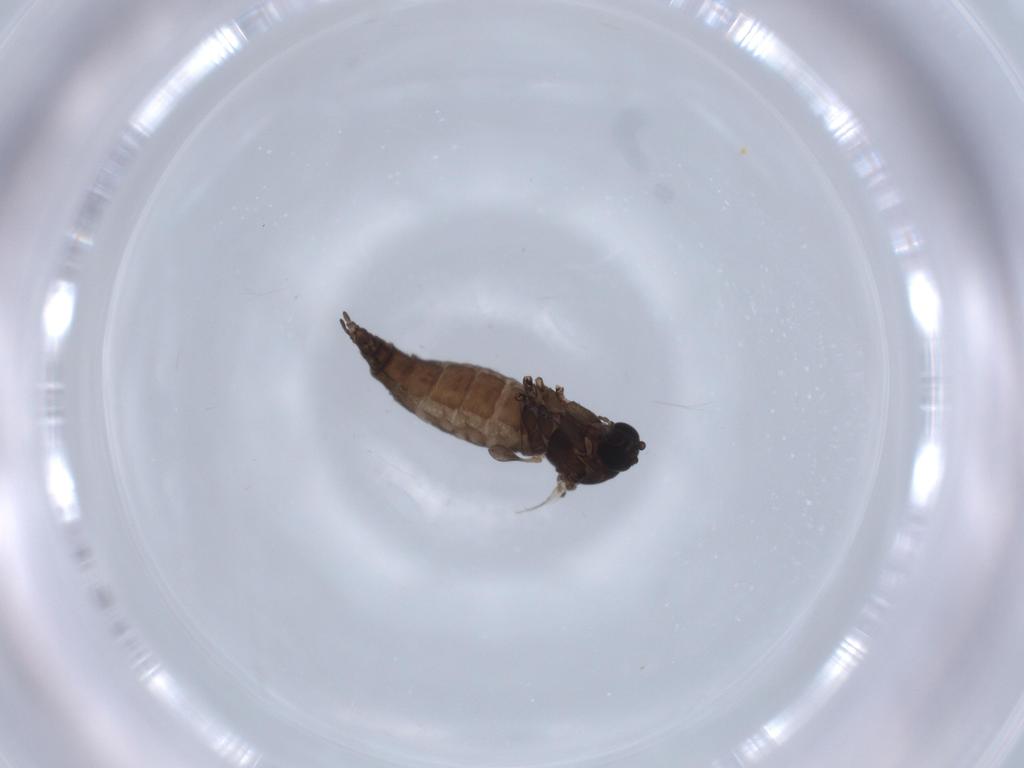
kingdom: Animalia
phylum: Arthropoda
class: Insecta
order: Diptera
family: Sciaridae
